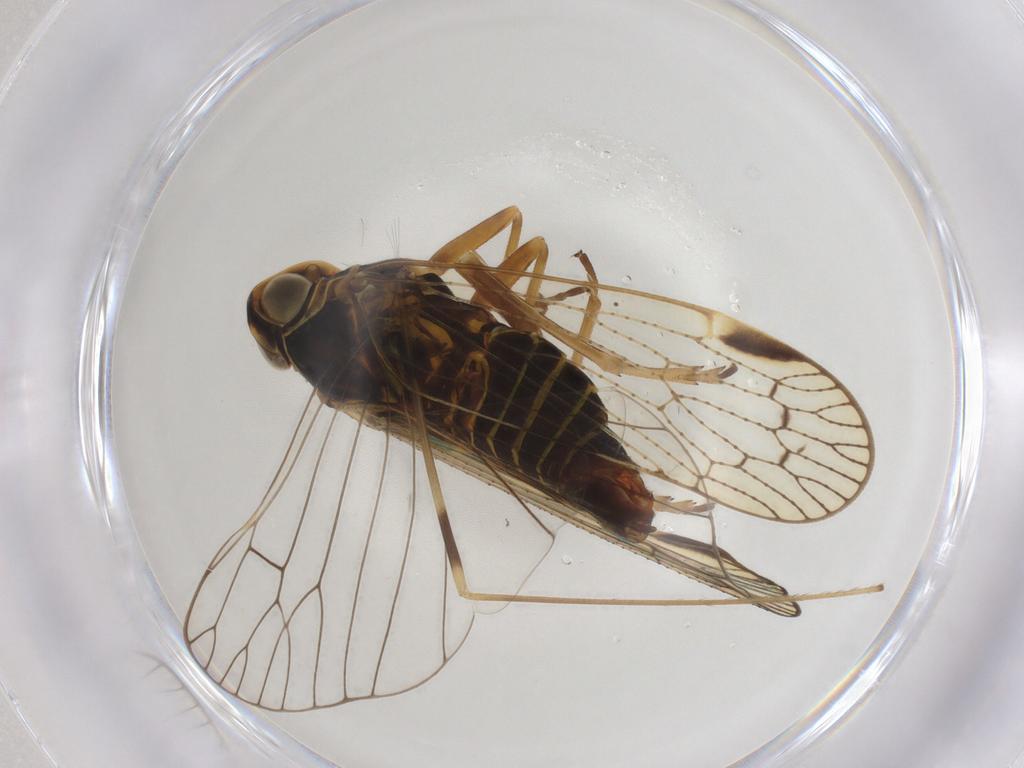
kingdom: Animalia
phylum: Arthropoda
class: Insecta
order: Hemiptera
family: Cixiidae
